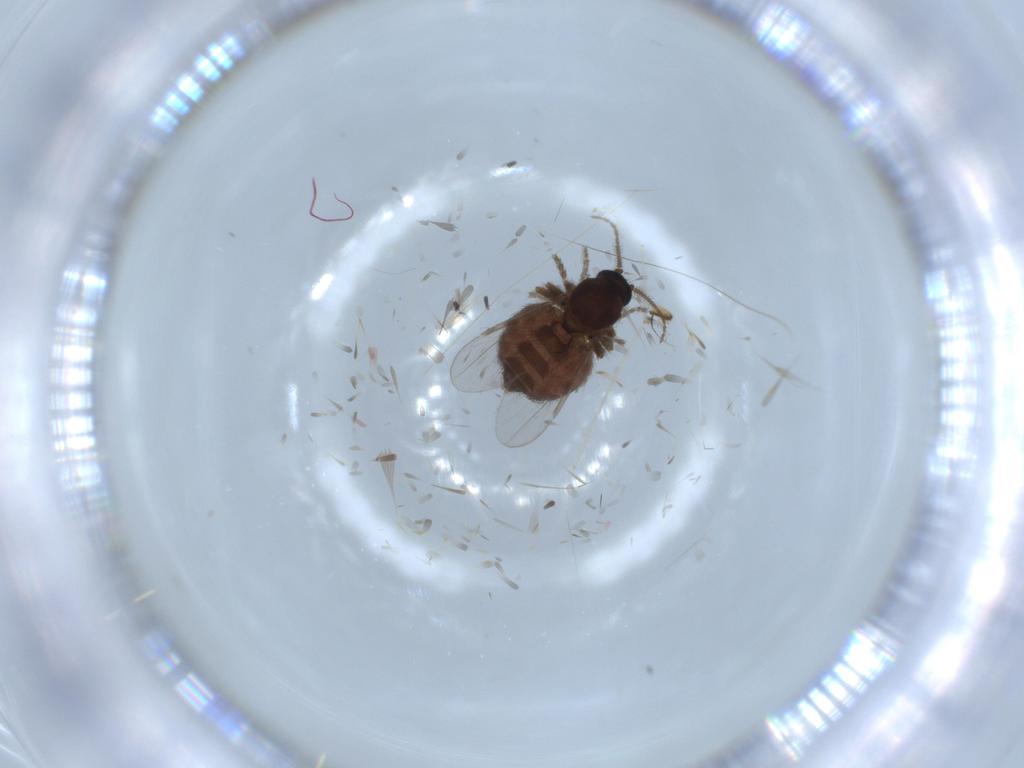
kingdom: Animalia
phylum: Arthropoda
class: Insecta
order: Diptera
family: Ceratopogonidae
